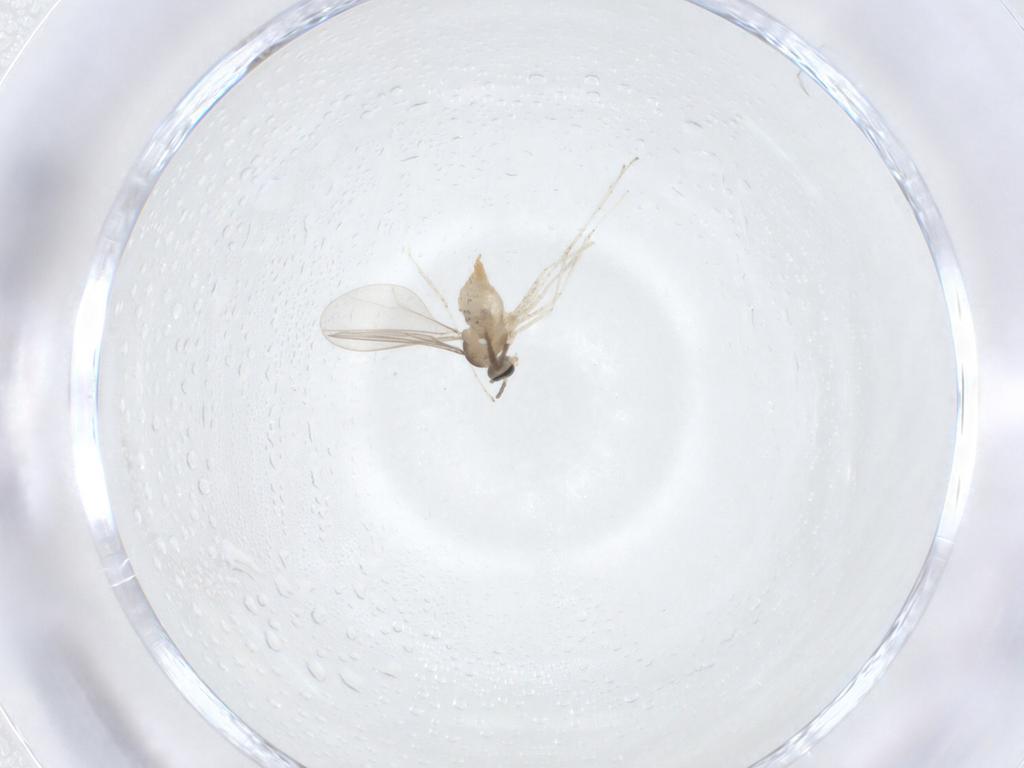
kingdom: Animalia
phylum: Arthropoda
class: Insecta
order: Diptera
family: Cecidomyiidae
